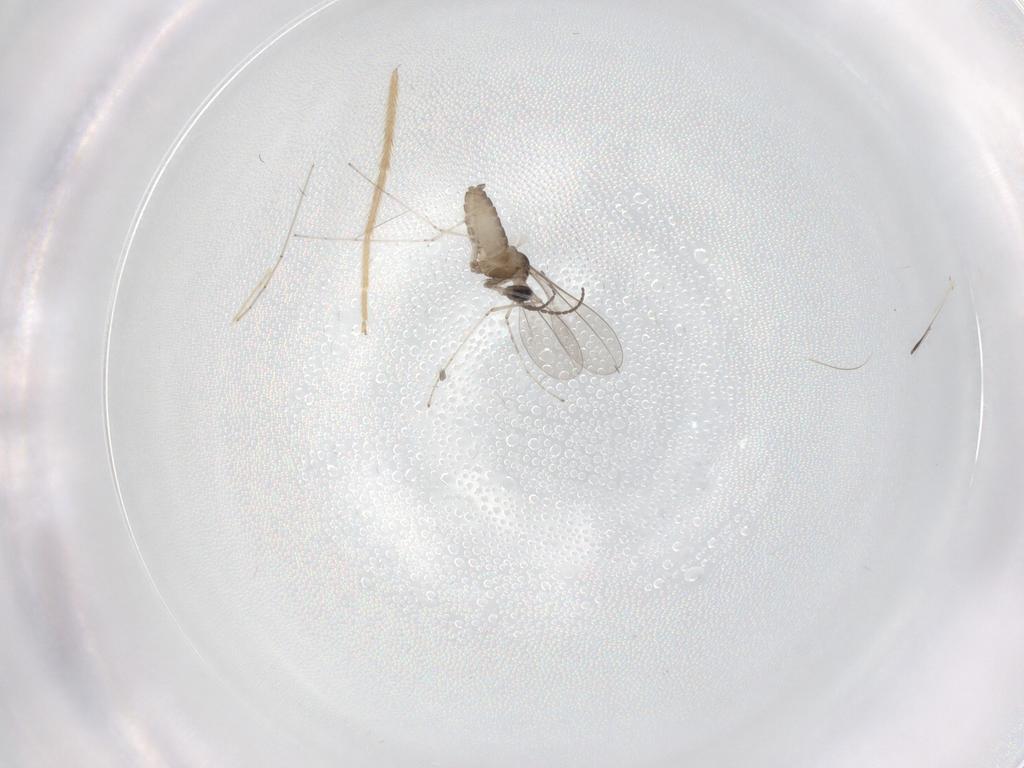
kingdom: Animalia
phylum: Arthropoda
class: Insecta
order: Diptera
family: Cecidomyiidae
